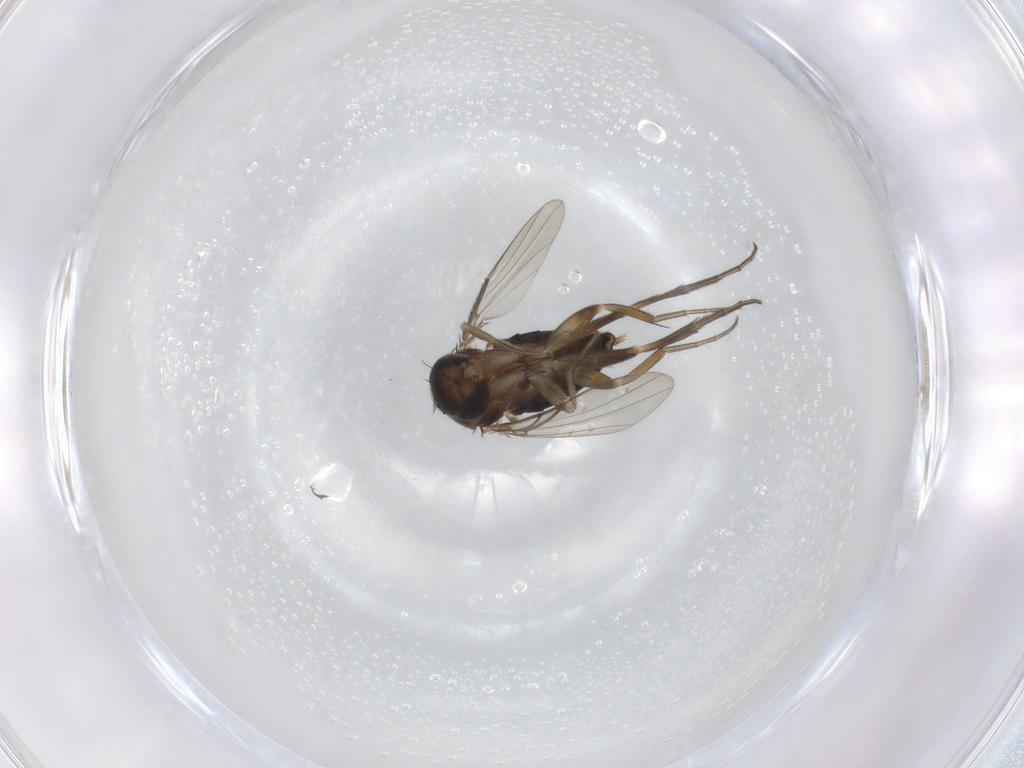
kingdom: Animalia
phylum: Arthropoda
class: Insecta
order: Diptera
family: Phoridae
